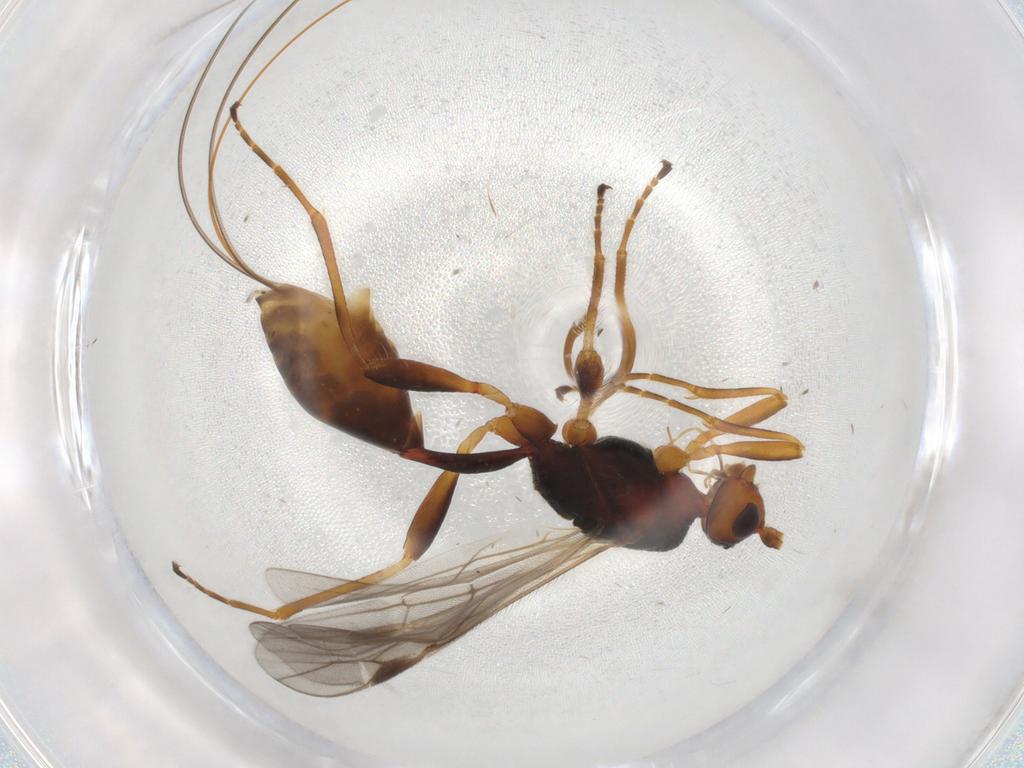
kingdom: Animalia
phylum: Arthropoda
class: Insecta
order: Hymenoptera
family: Braconidae
